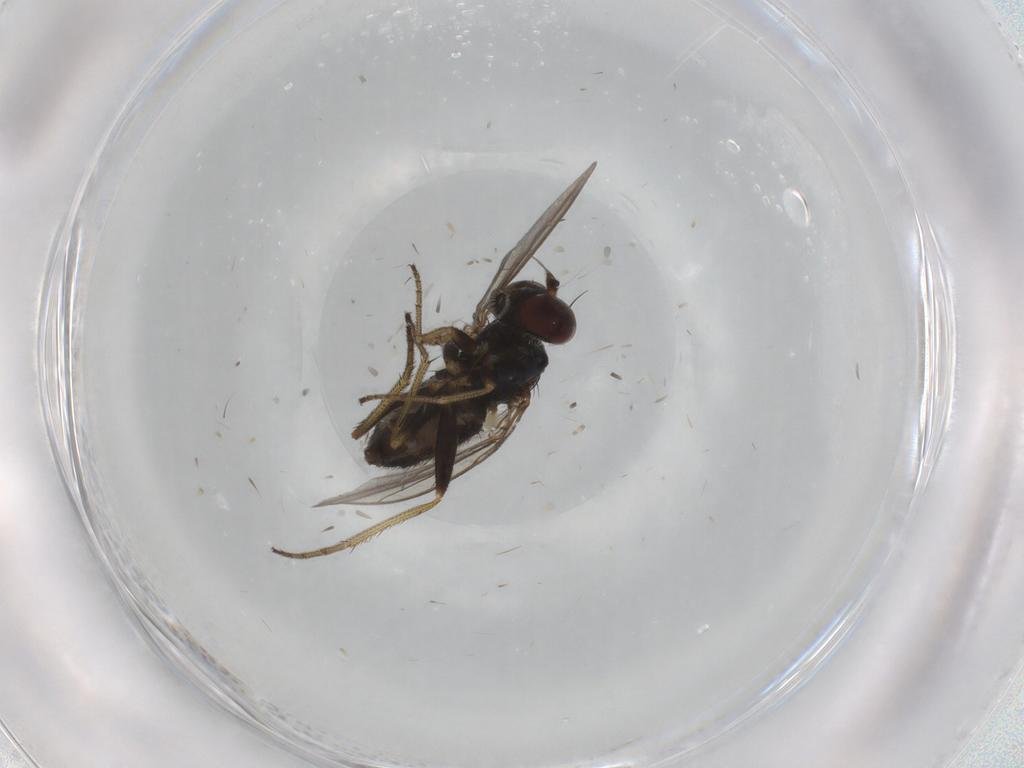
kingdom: Animalia
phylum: Arthropoda
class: Insecta
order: Diptera
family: Dolichopodidae
